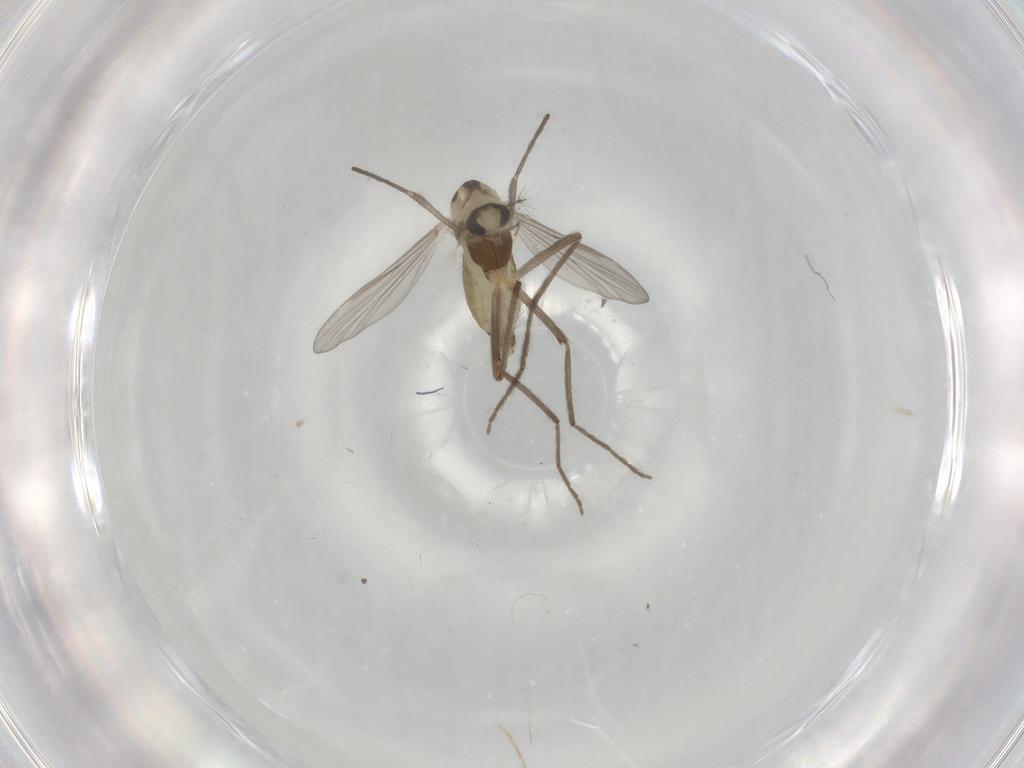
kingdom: Animalia
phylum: Arthropoda
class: Insecta
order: Diptera
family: Chironomidae
